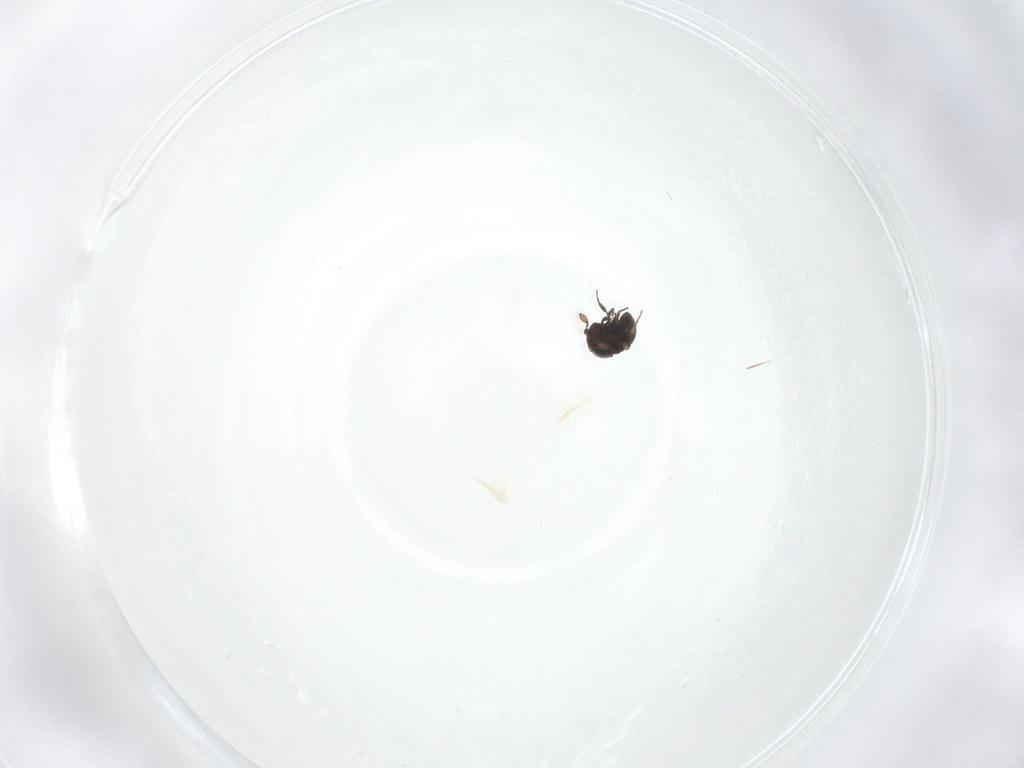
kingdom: Animalia
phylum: Arthropoda
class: Insecta
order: Hymenoptera
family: Scelionidae
